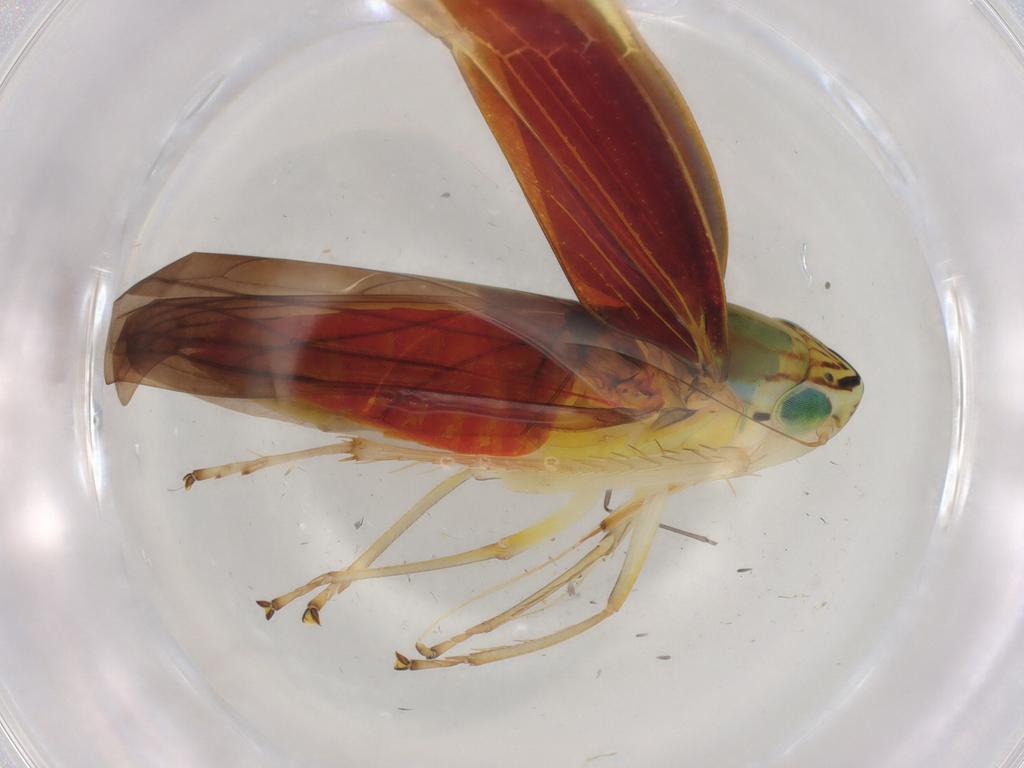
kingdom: Animalia
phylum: Arthropoda
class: Insecta
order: Hemiptera
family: Cicadellidae
